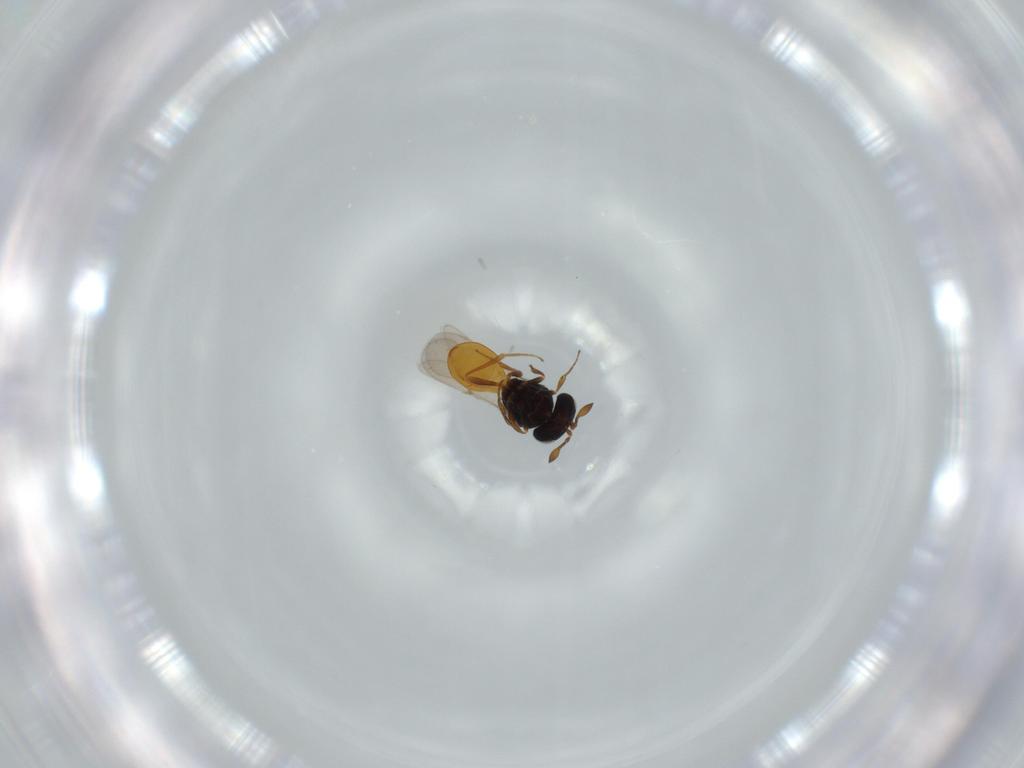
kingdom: Animalia
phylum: Arthropoda
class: Insecta
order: Hymenoptera
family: Scelionidae
